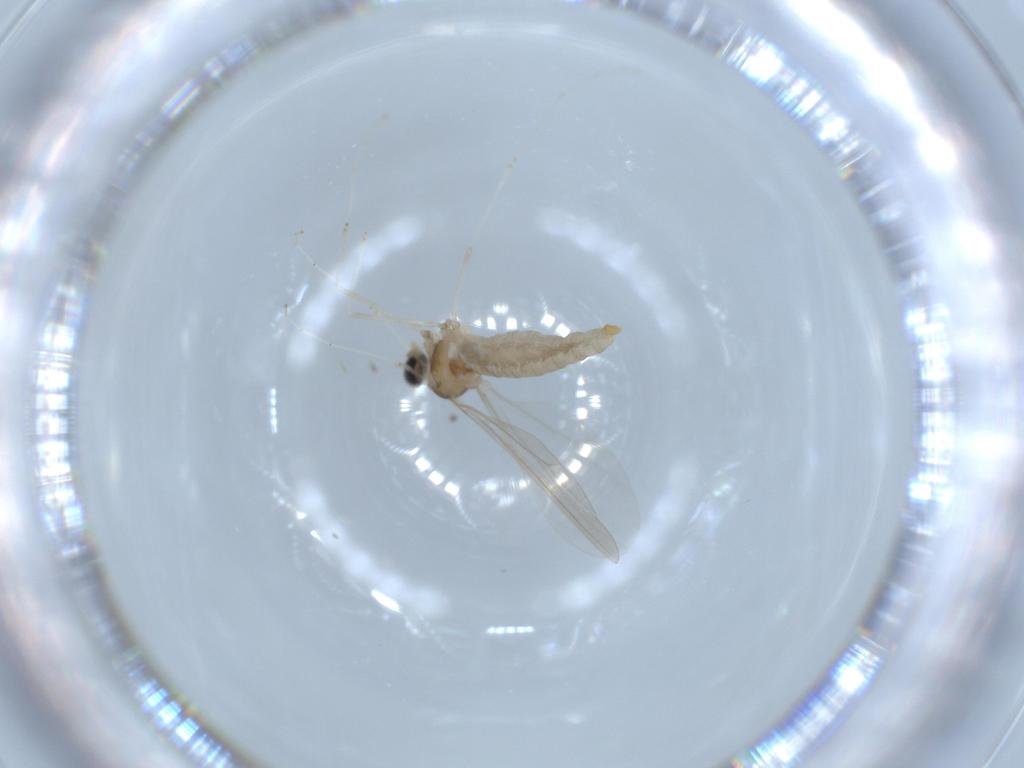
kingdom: Animalia
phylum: Arthropoda
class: Insecta
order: Diptera
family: Cecidomyiidae
